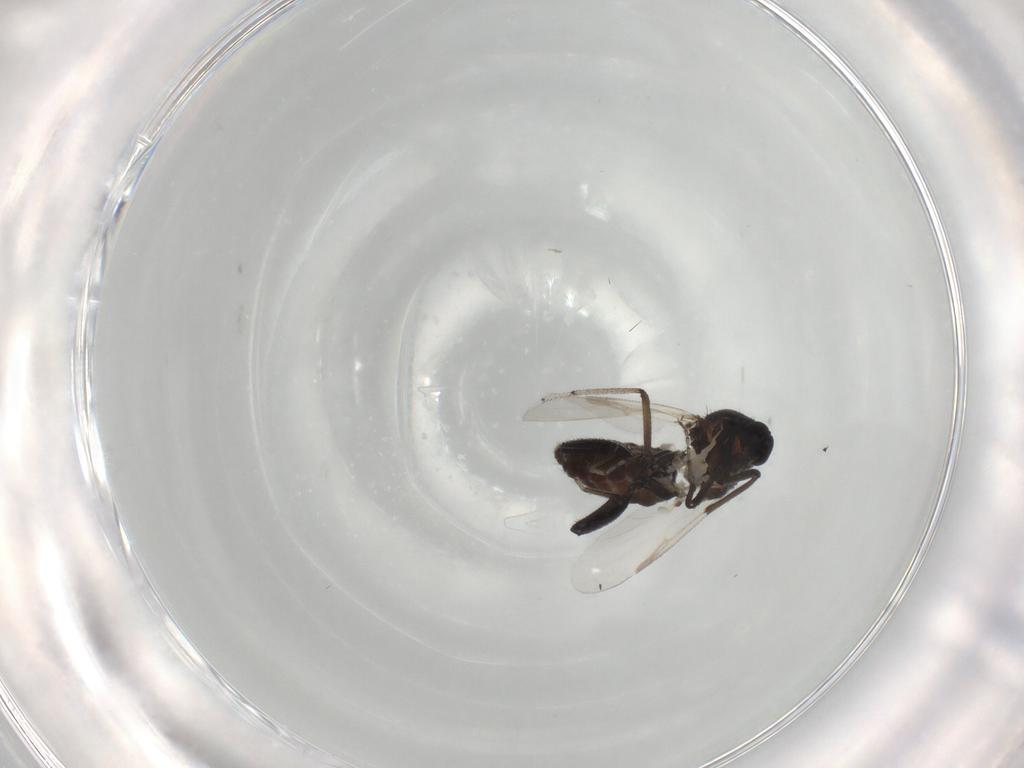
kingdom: Animalia
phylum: Arthropoda
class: Insecta
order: Diptera
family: Ceratopogonidae
